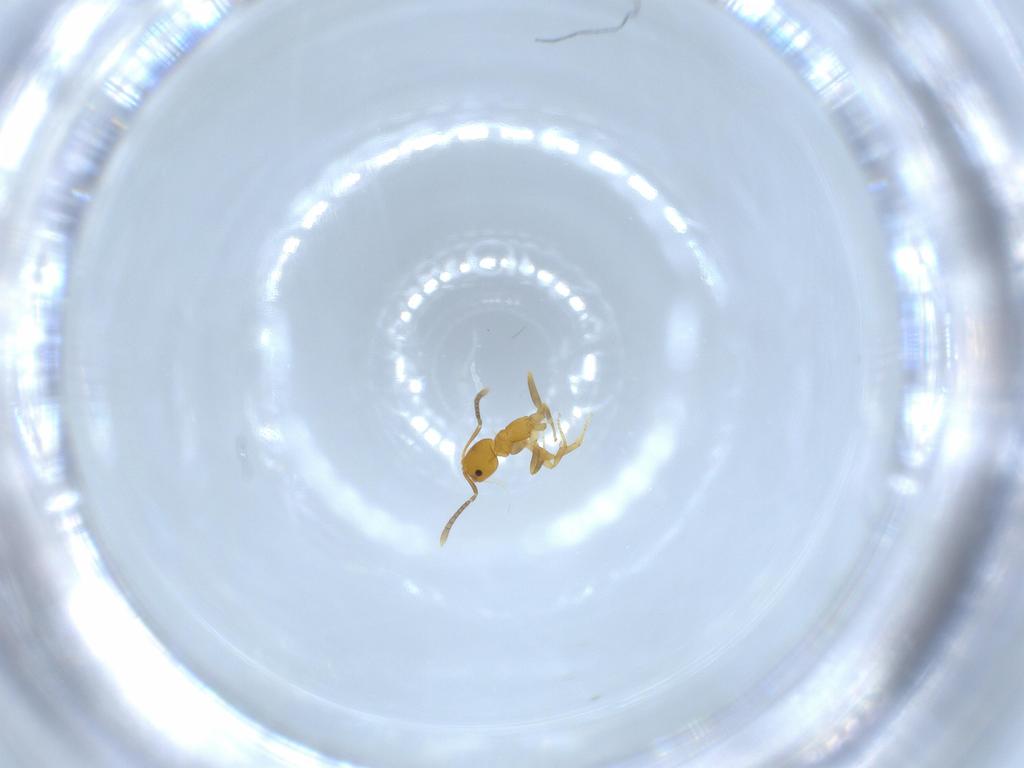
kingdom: Animalia
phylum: Arthropoda
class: Insecta
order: Hymenoptera
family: Formicidae
